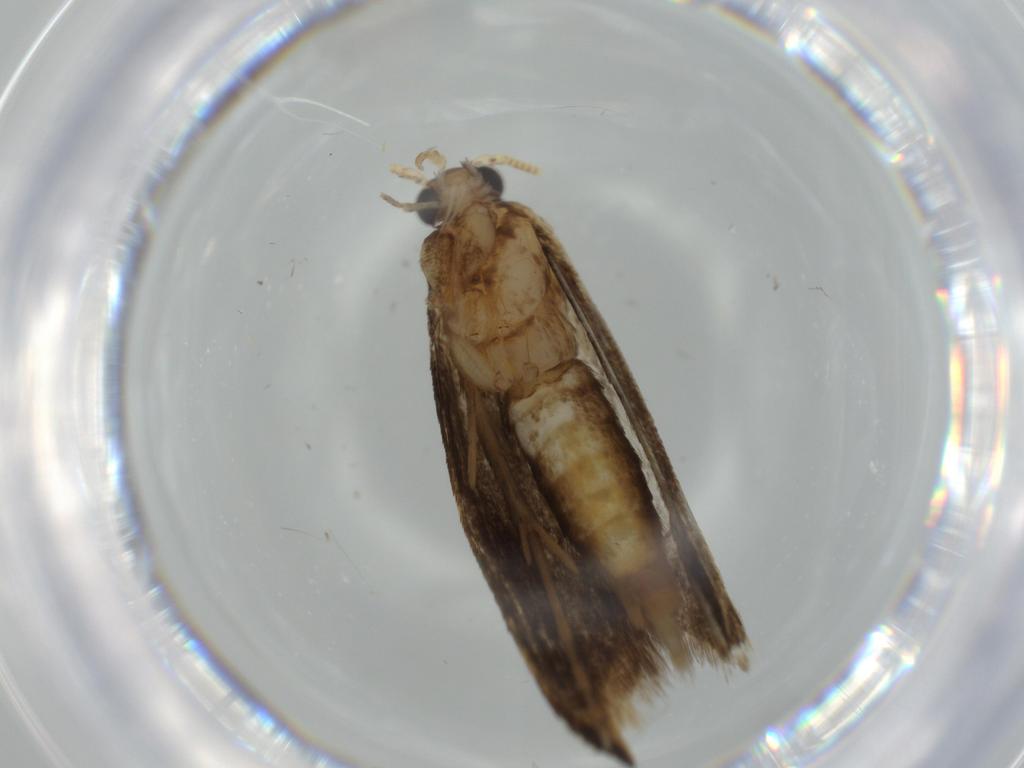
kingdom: Animalia
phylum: Arthropoda
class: Insecta
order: Lepidoptera
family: Tineidae
